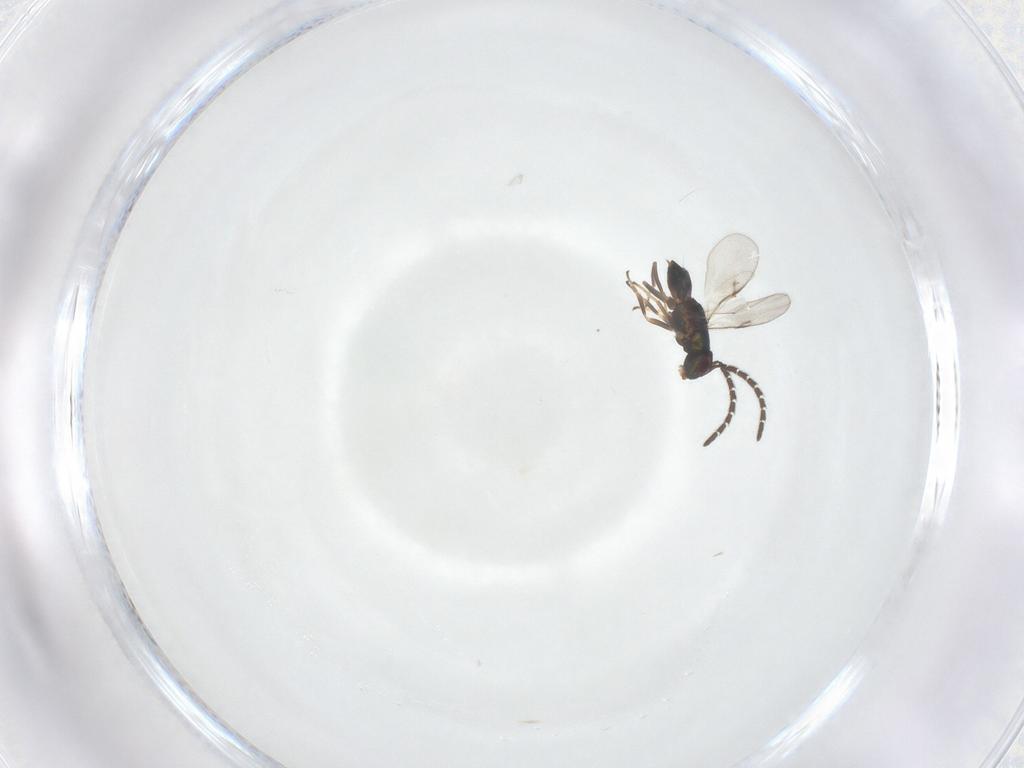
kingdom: Animalia
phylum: Arthropoda
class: Insecta
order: Hymenoptera
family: Encyrtidae
